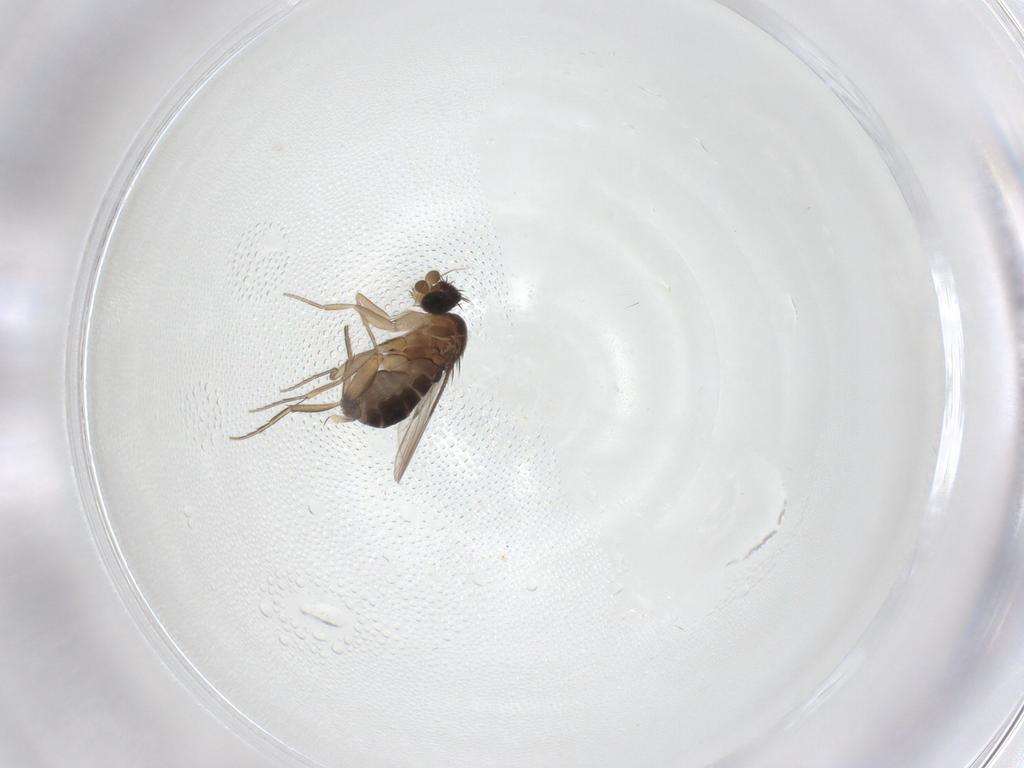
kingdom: Animalia
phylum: Arthropoda
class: Insecta
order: Diptera
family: Phoridae
